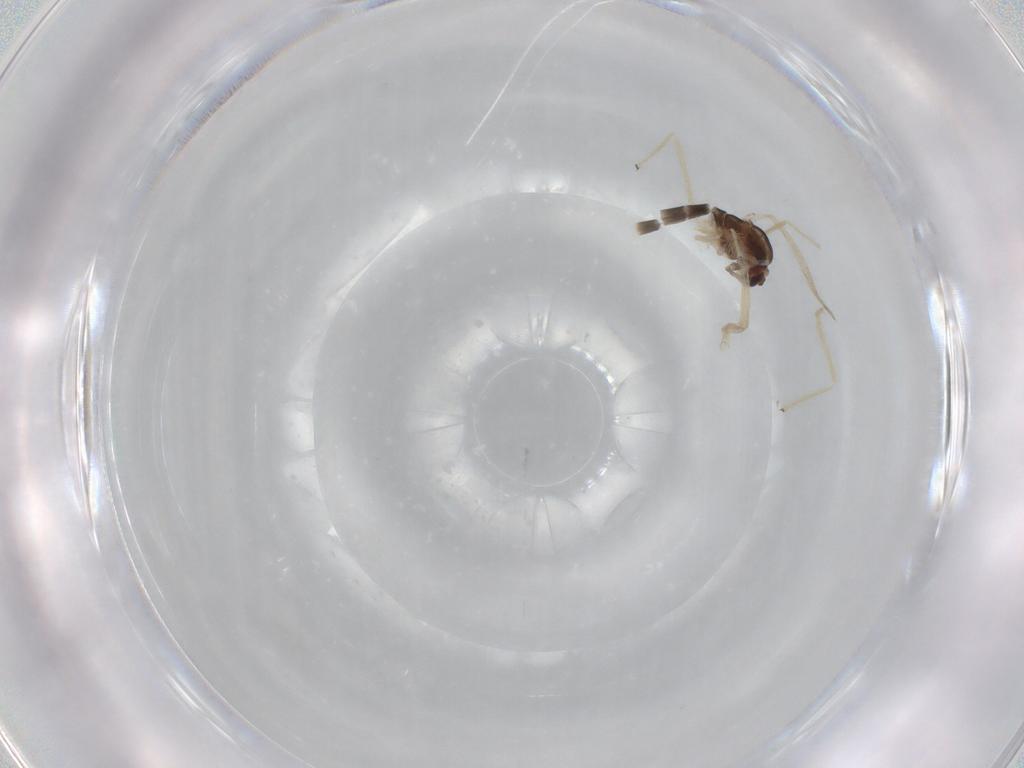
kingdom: Animalia
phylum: Arthropoda
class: Insecta
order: Diptera
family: Chironomidae
